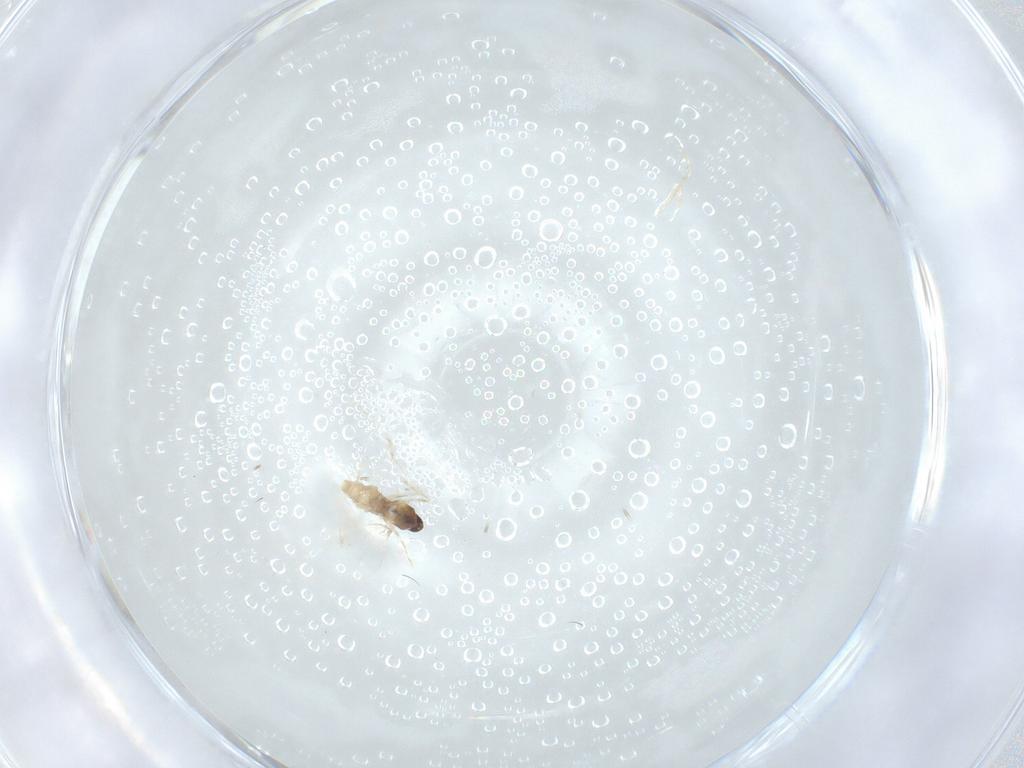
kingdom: Animalia
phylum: Arthropoda
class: Insecta
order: Diptera
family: Cecidomyiidae
